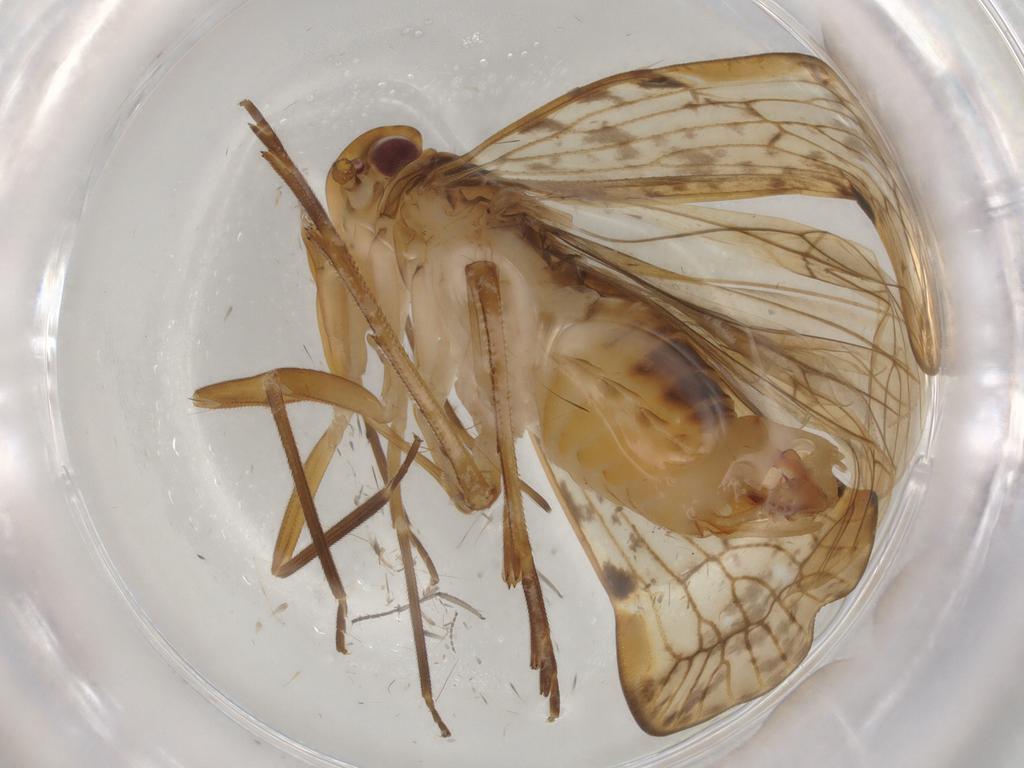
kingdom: Animalia
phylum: Arthropoda
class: Insecta
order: Hemiptera
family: Cixiidae
